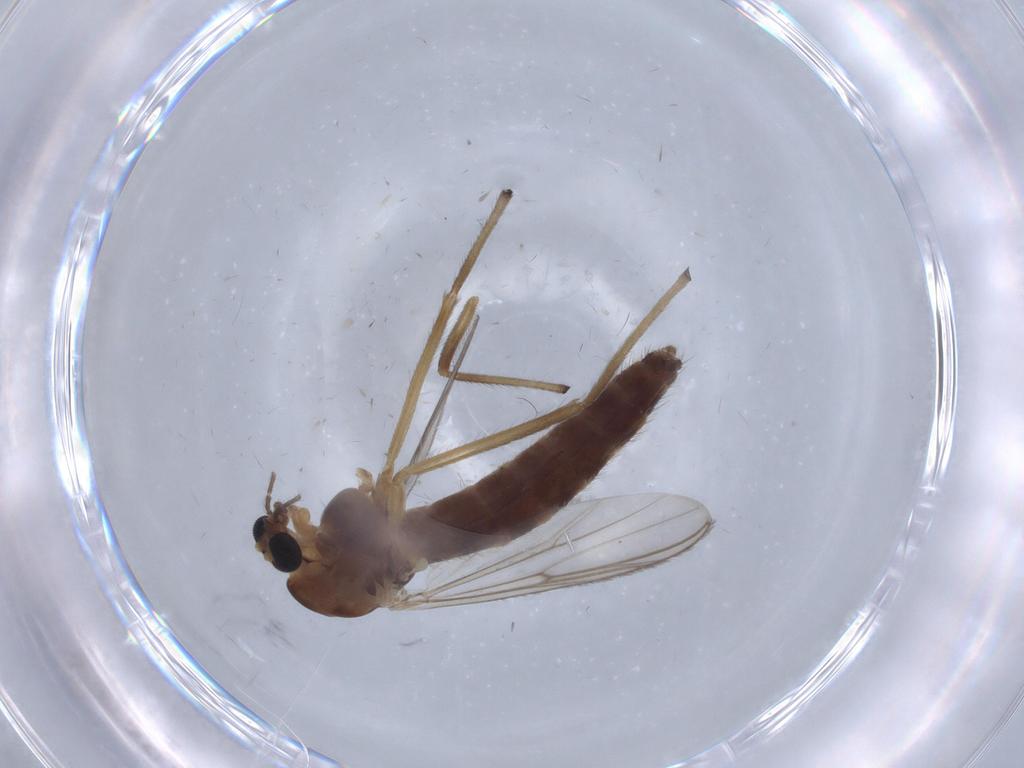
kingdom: Animalia
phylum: Arthropoda
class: Insecta
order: Diptera
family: Chironomidae
